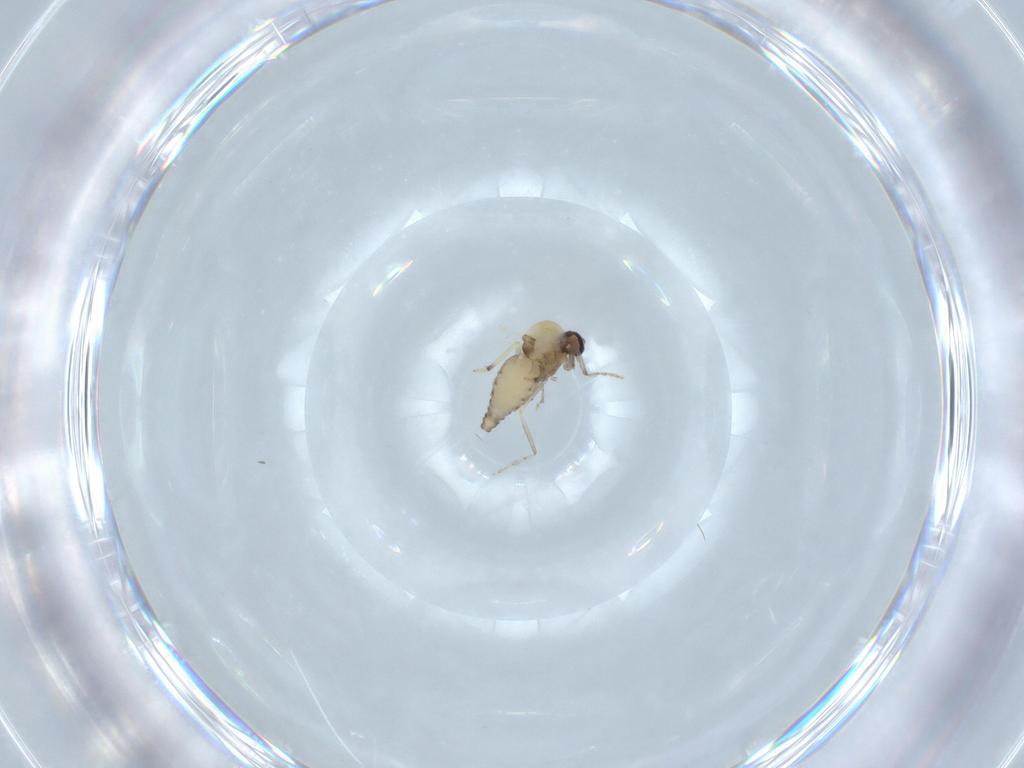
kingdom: Animalia
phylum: Arthropoda
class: Insecta
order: Diptera
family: Ceratopogonidae
